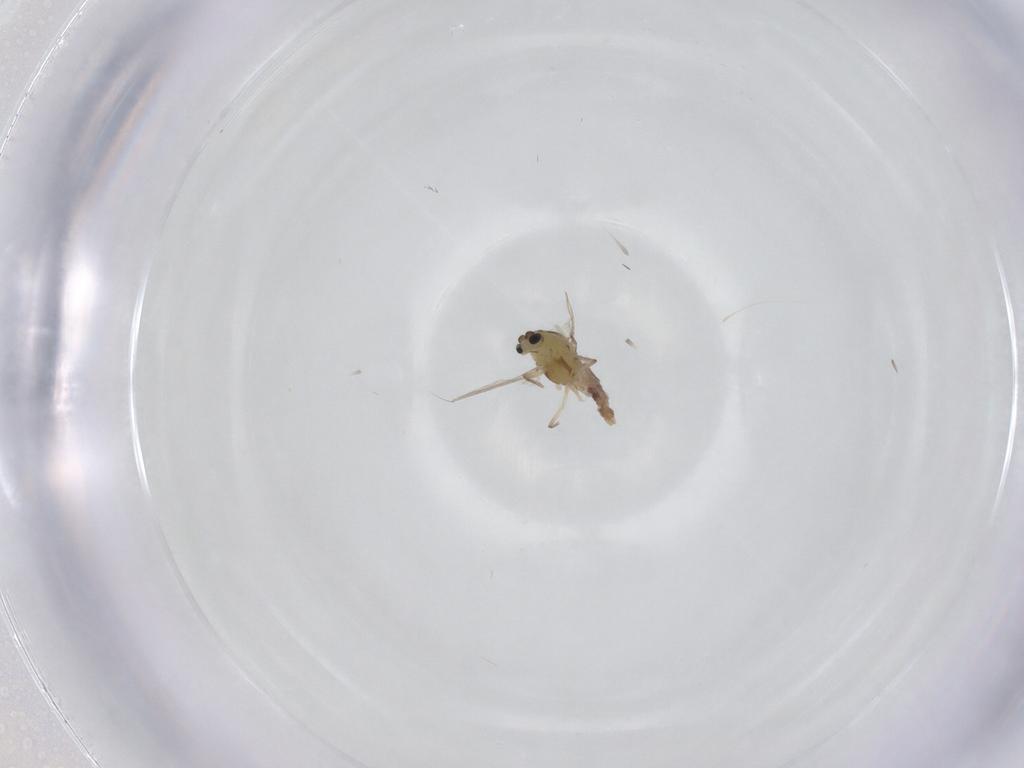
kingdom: Animalia
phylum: Arthropoda
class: Insecta
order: Diptera
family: Chironomidae
